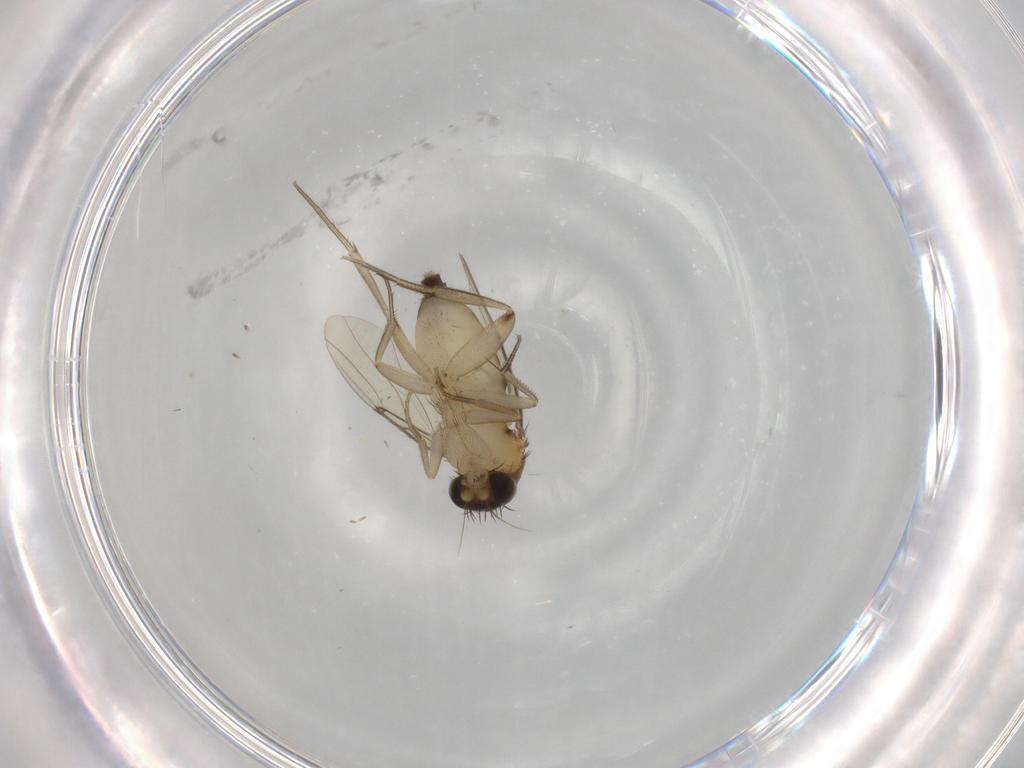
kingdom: Animalia
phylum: Arthropoda
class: Insecta
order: Diptera
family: Phoridae
